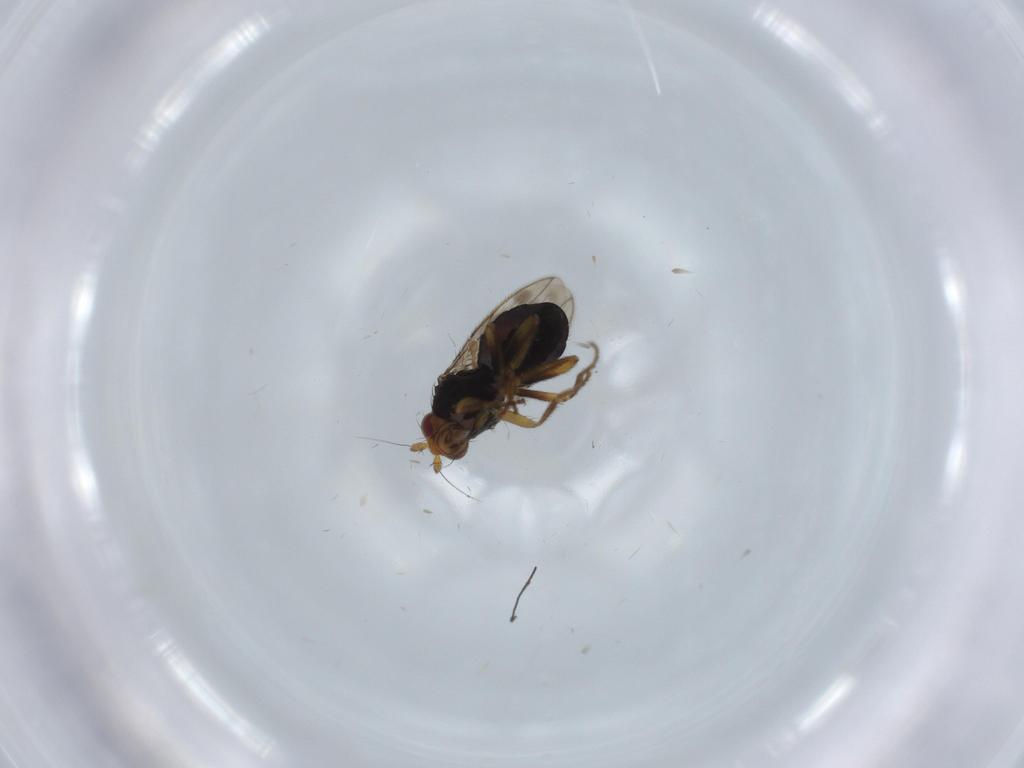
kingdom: Animalia
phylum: Arthropoda
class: Insecta
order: Diptera
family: Sphaeroceridae
